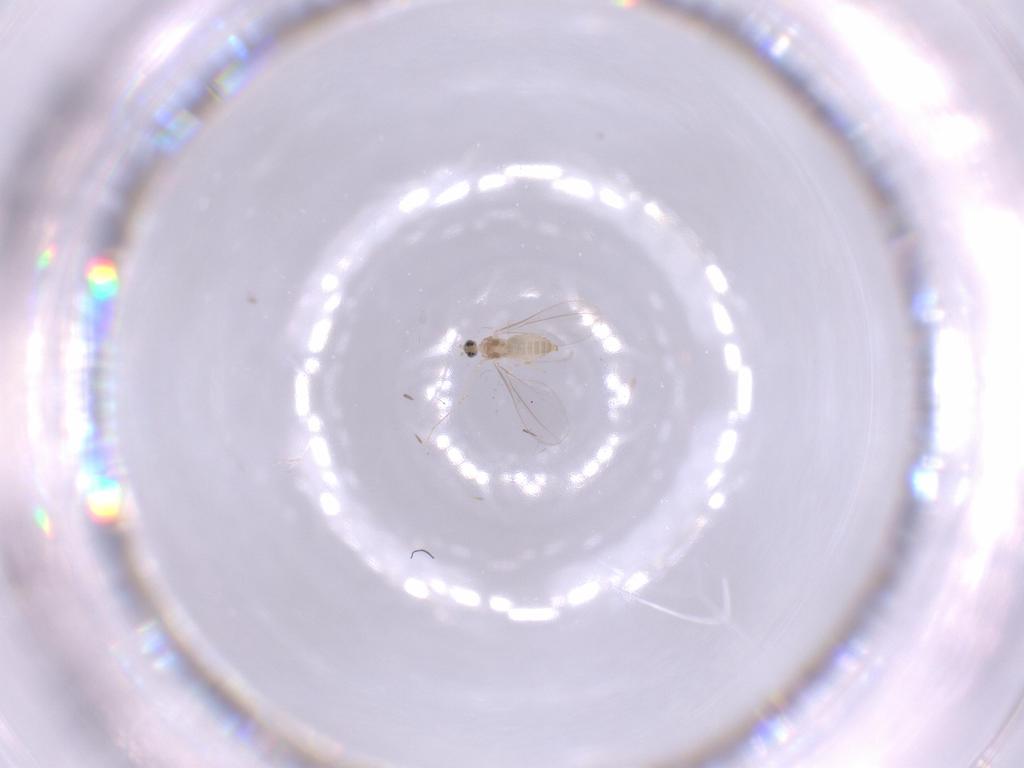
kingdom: Animalia
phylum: Arthropoda
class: Insecta
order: Diptera
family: Cecidomyiidae
